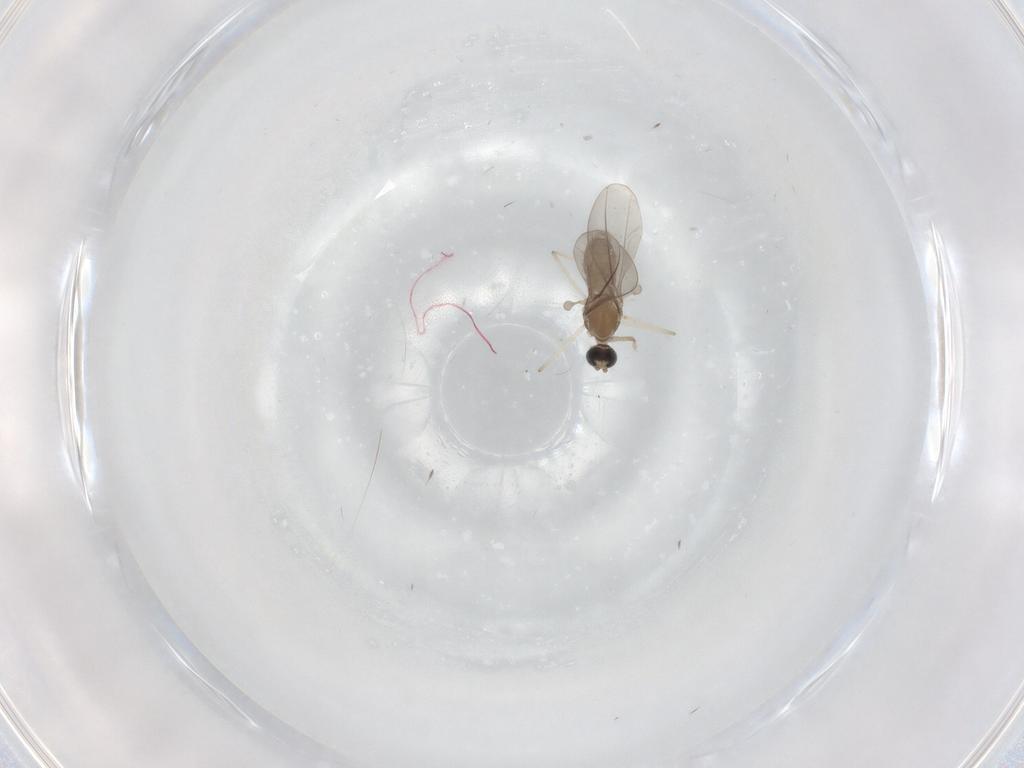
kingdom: Animalia
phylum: Arthropoda
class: Insecta
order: Diptera
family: Cecidomyiidae
